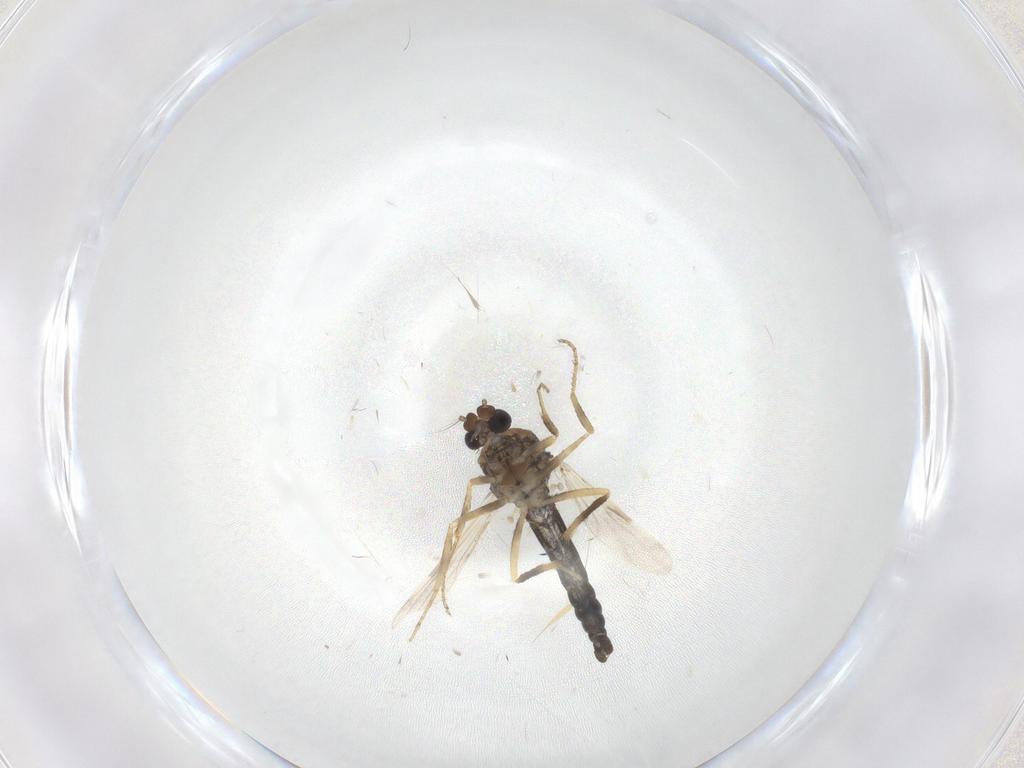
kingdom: Animalia
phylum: Arthropoda
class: Insecta
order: Diptera
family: Ceratopogonidae
